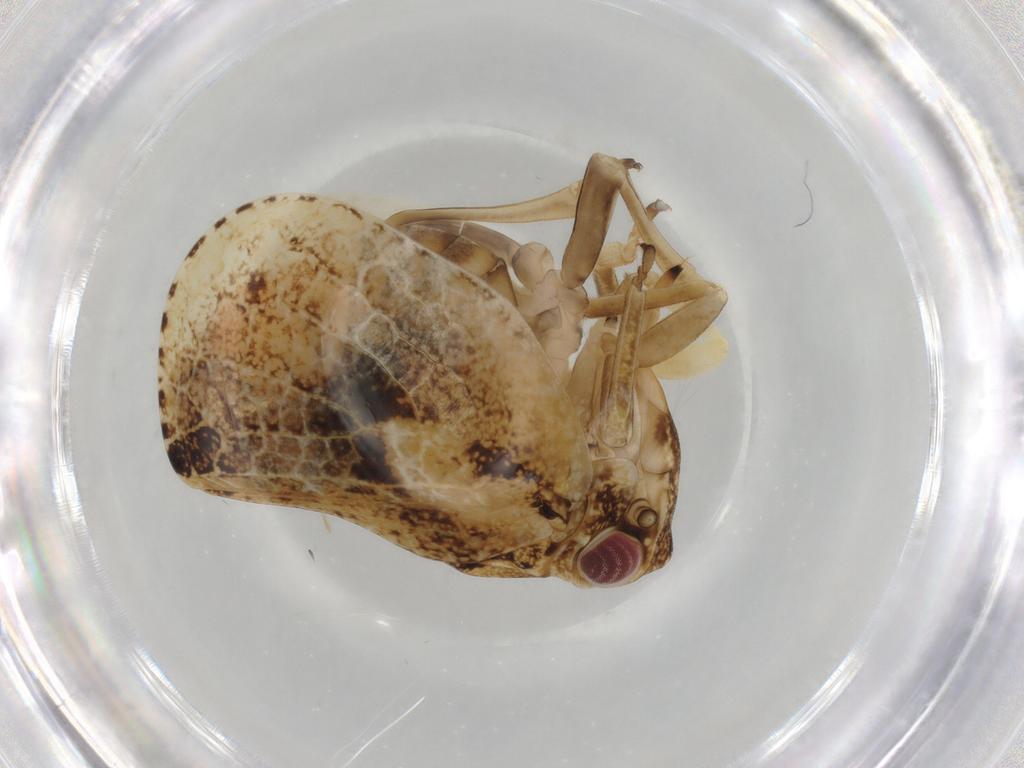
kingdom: Animalia
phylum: Arthropoda
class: Insecta
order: Hemiptera
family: Acanaloniidae
